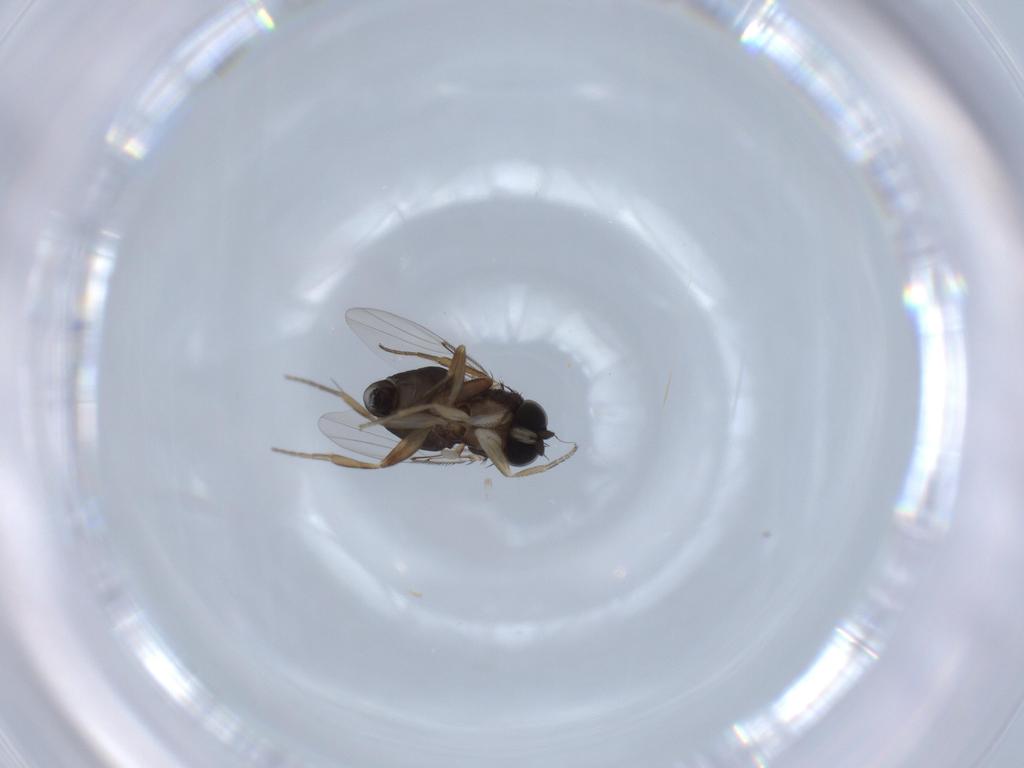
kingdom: Animalia
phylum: Arthropoda
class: Insecta
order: Diptera
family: Phoridae
